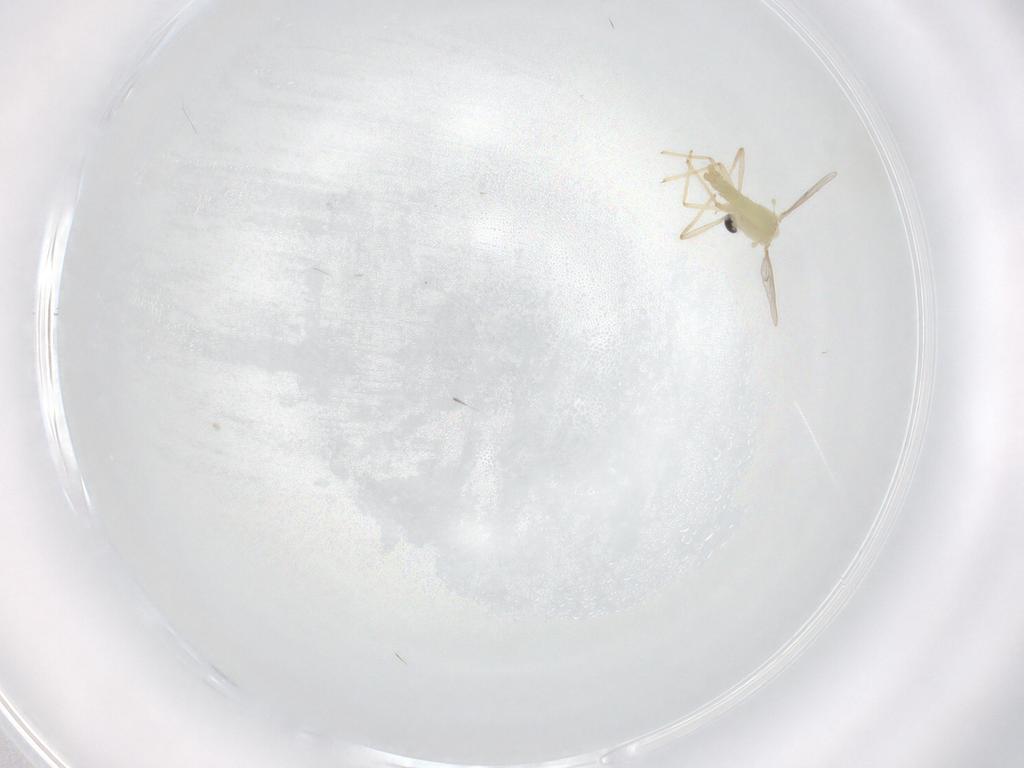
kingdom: Animalia
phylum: Arthropoda
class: Insecta
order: Diptera
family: Chironomidae
